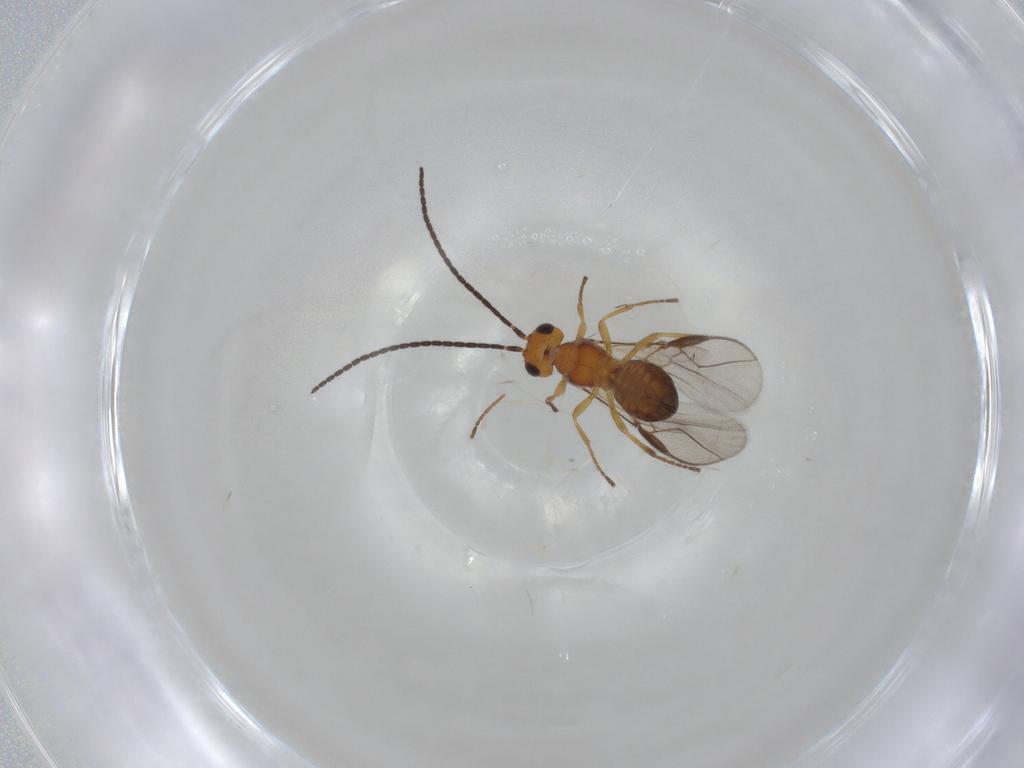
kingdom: Animalia
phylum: Arthropoda
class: Insecta
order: Hymenoptera
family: Braconidae
